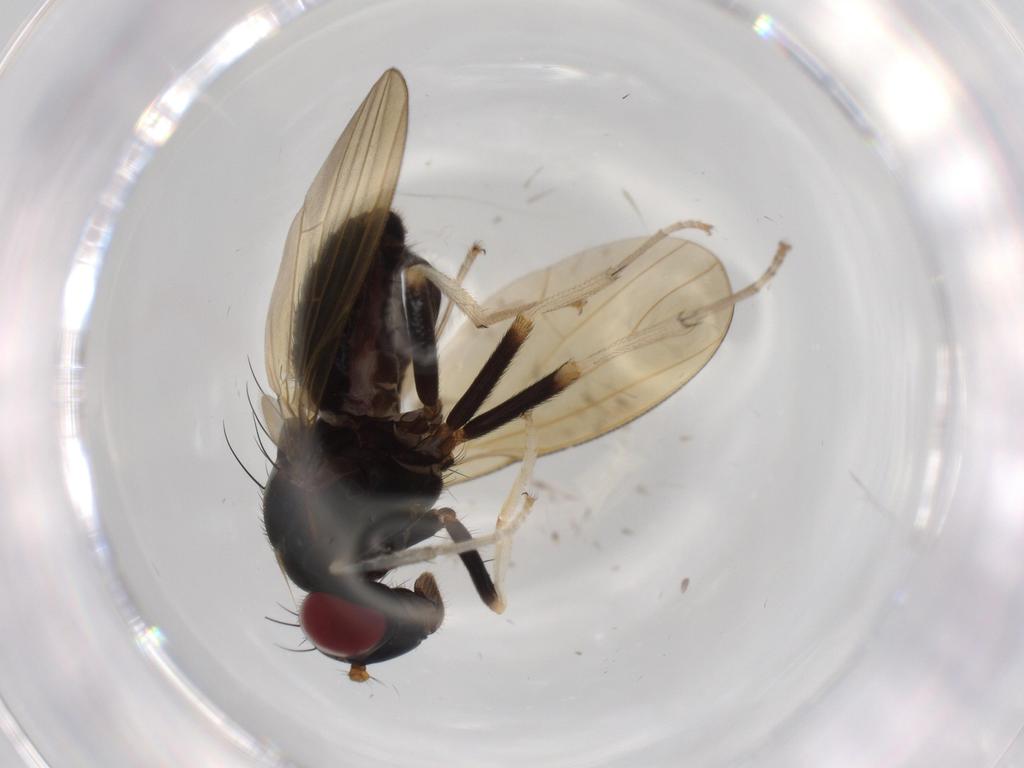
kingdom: Animalia
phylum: Arthropoda
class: Insecta
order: Diptera
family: Lauxaniidae
